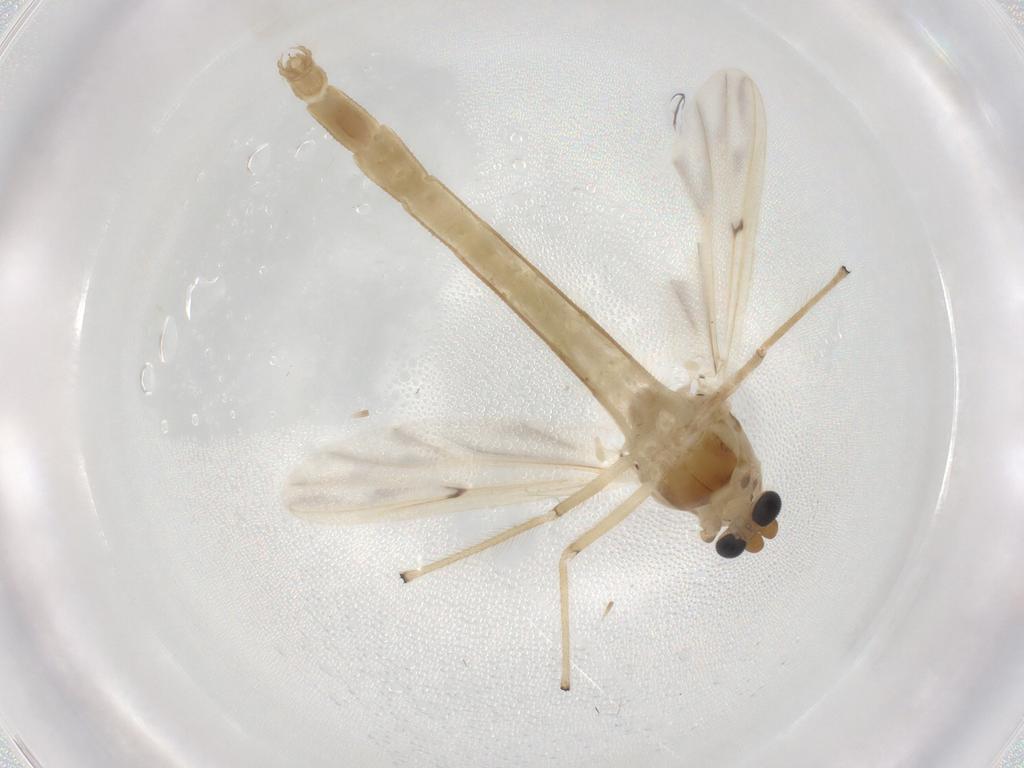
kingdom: Animalia
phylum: Arthropoda
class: Insecta
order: Diptera
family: Chironomidae
